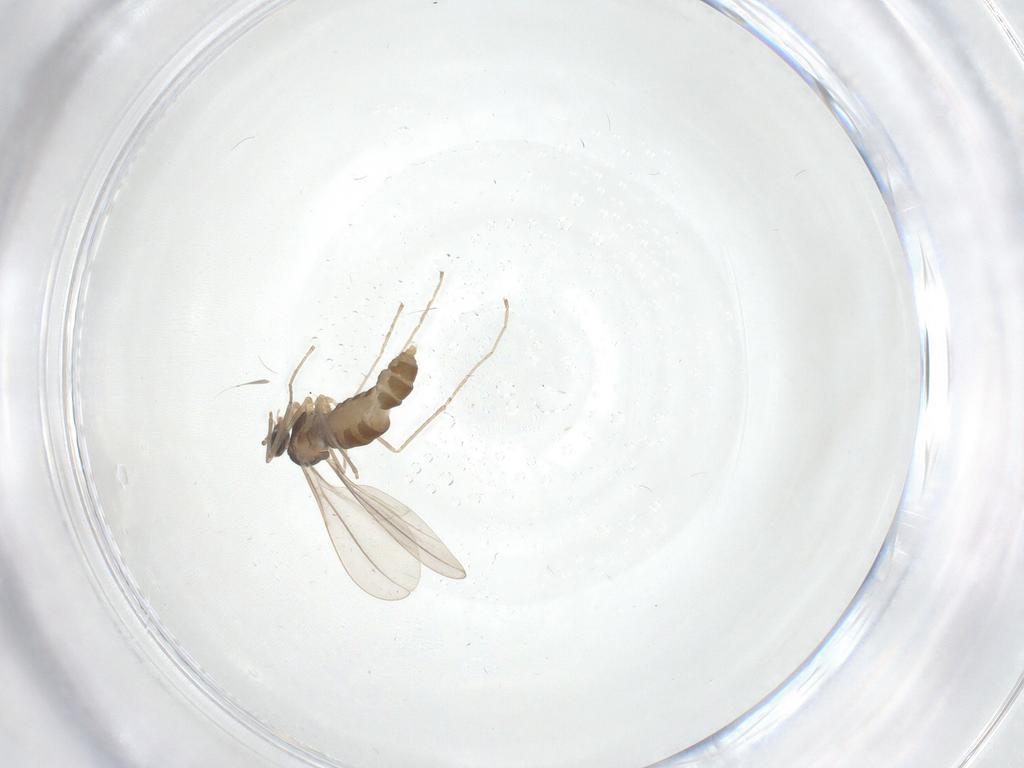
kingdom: Animalia
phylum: Arthropoda
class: Insecta
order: Diptera
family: Cecidomyiidae
